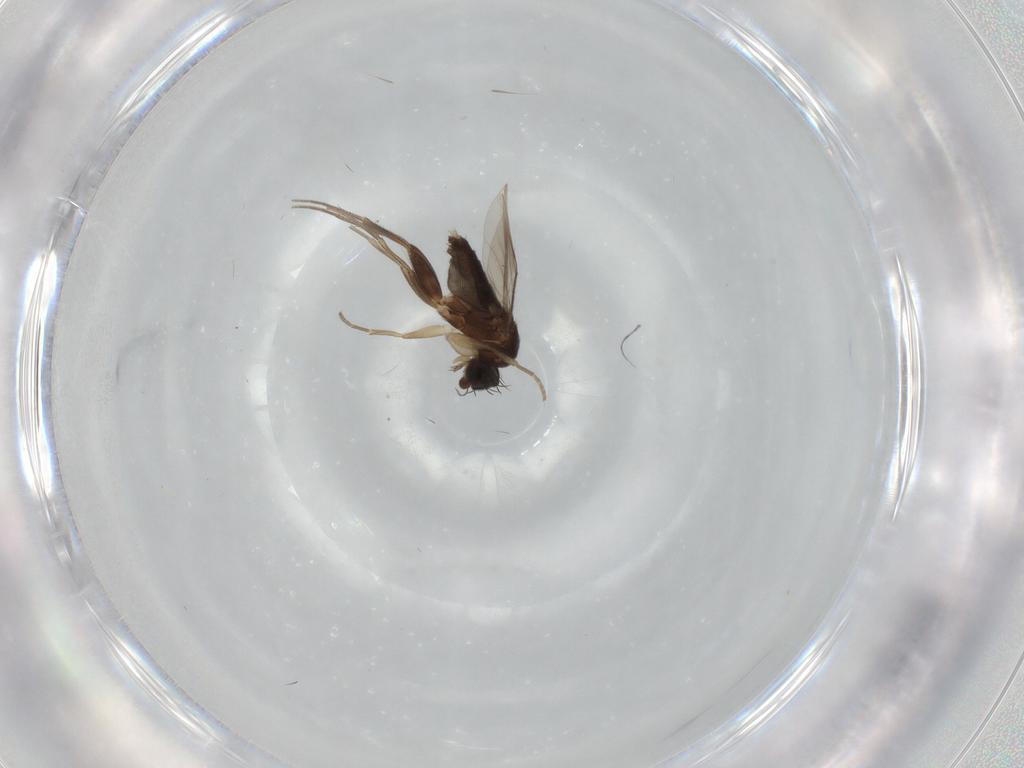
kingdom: Animalia
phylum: Arthropoda
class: Insecta
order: Diptera
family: Phoridae
